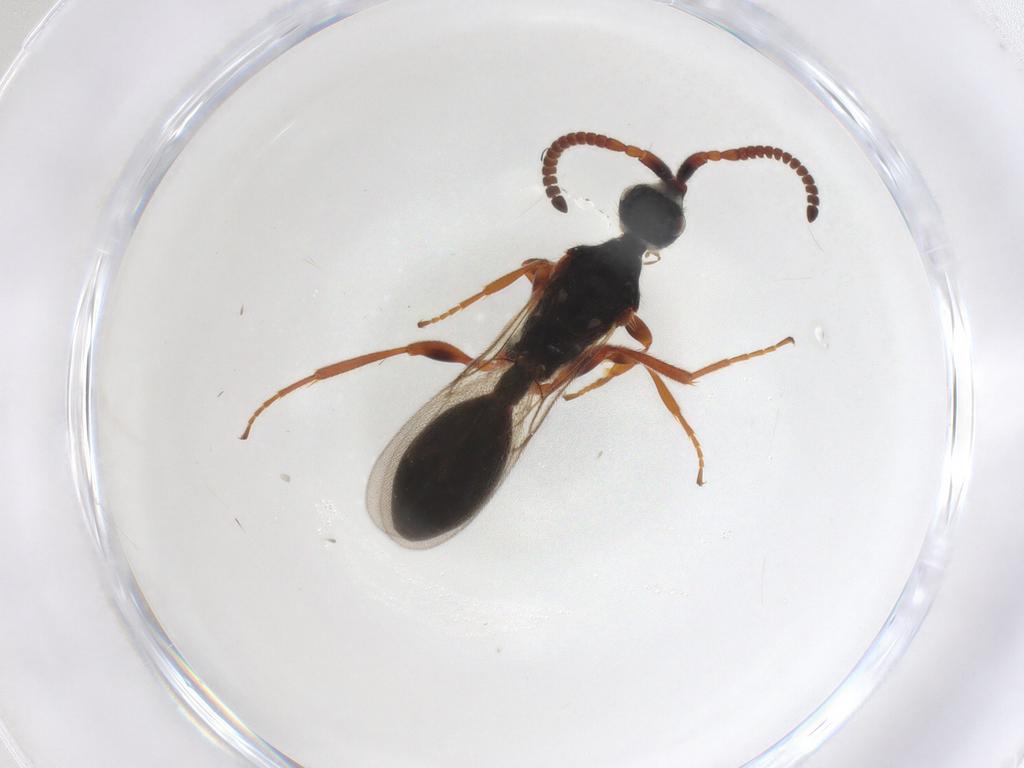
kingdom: Animalia
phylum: Arthropoda
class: Insecta
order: Hymenoptera
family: Diapriidae
